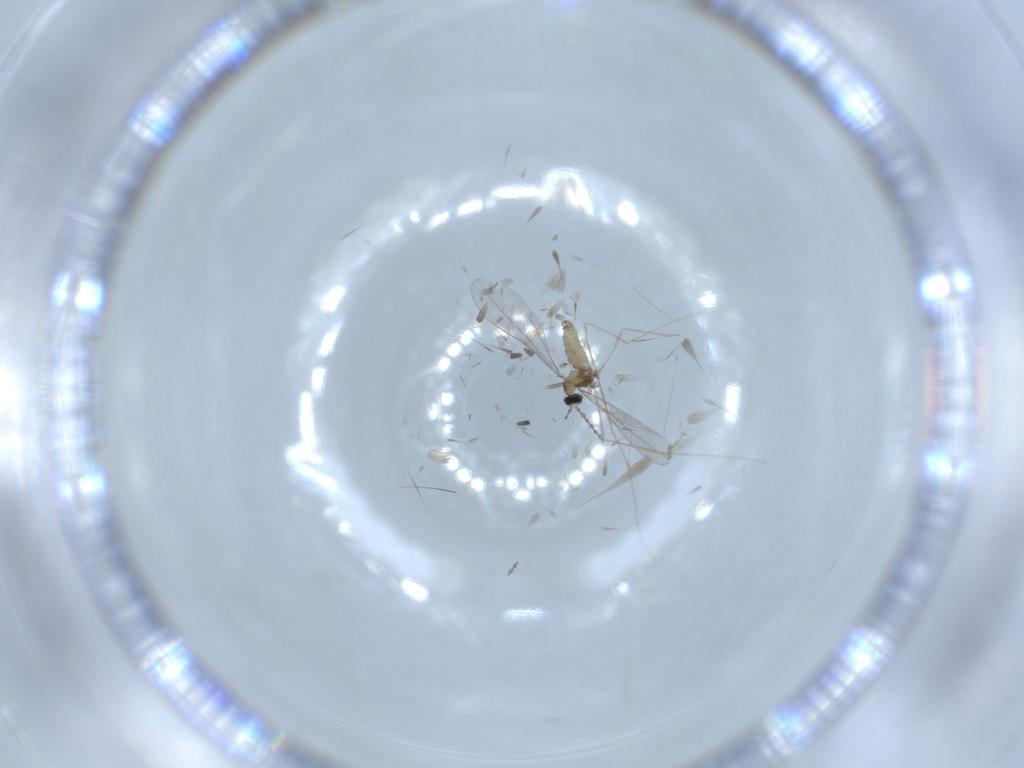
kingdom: Animalia
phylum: Arthropoda
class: Insecta
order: Diptera
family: Cecidomyiidae
